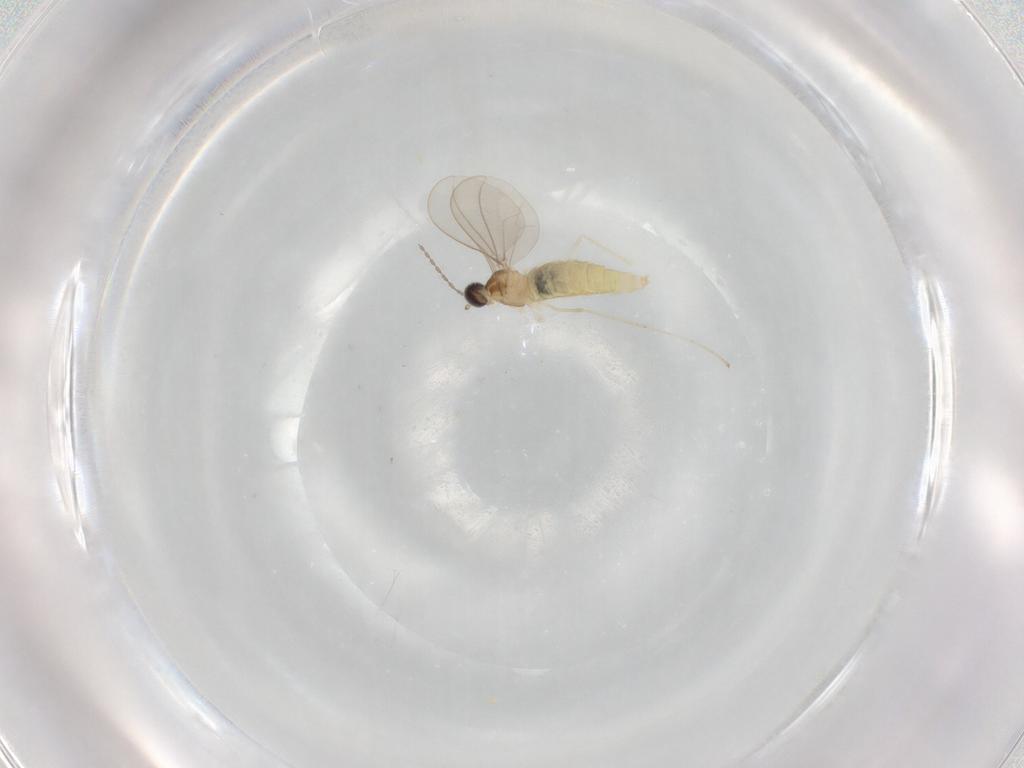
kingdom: Animalia
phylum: Arthropoda
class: Insecta
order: Diptera
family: Cecidomyiidae
